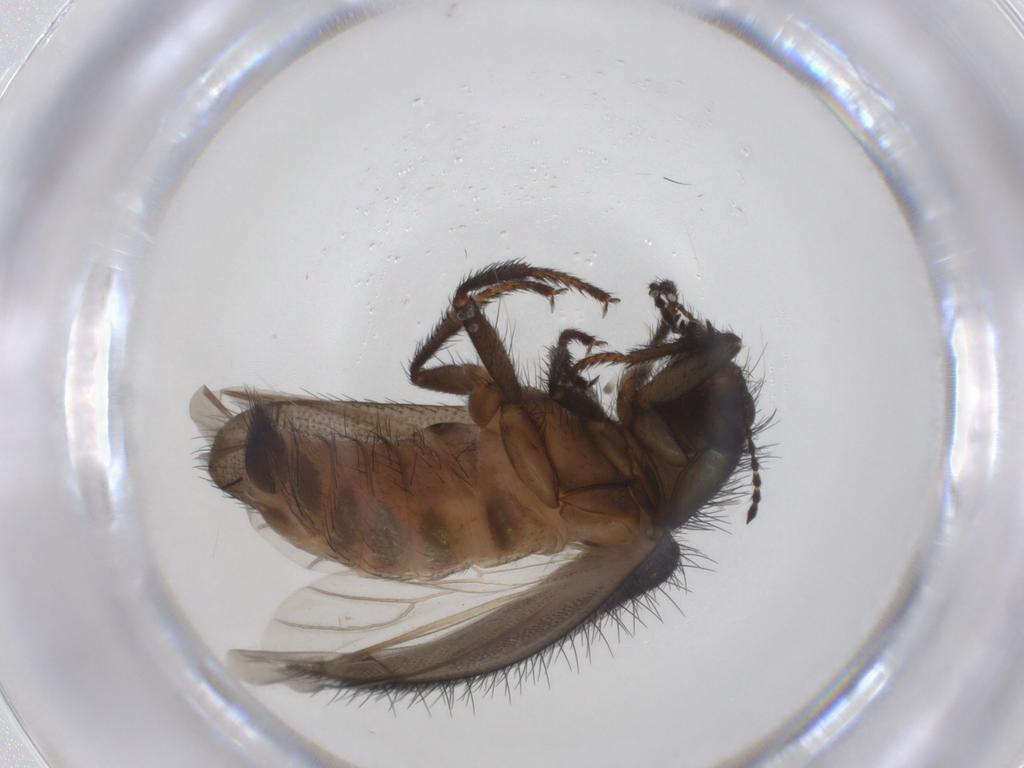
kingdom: Animalia
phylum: Arthropoda
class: Insecta
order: Coleoptera
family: Melyridae
